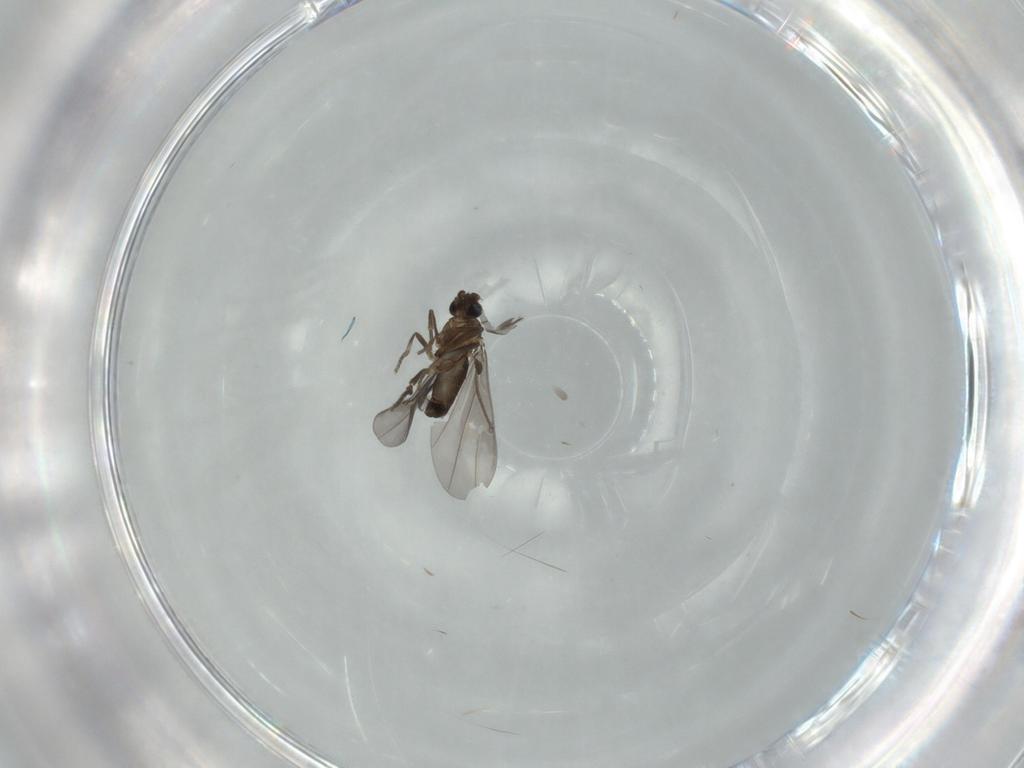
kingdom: Animalia
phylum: Arthropoda
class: Insecta
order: Diptera
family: Phoridae
